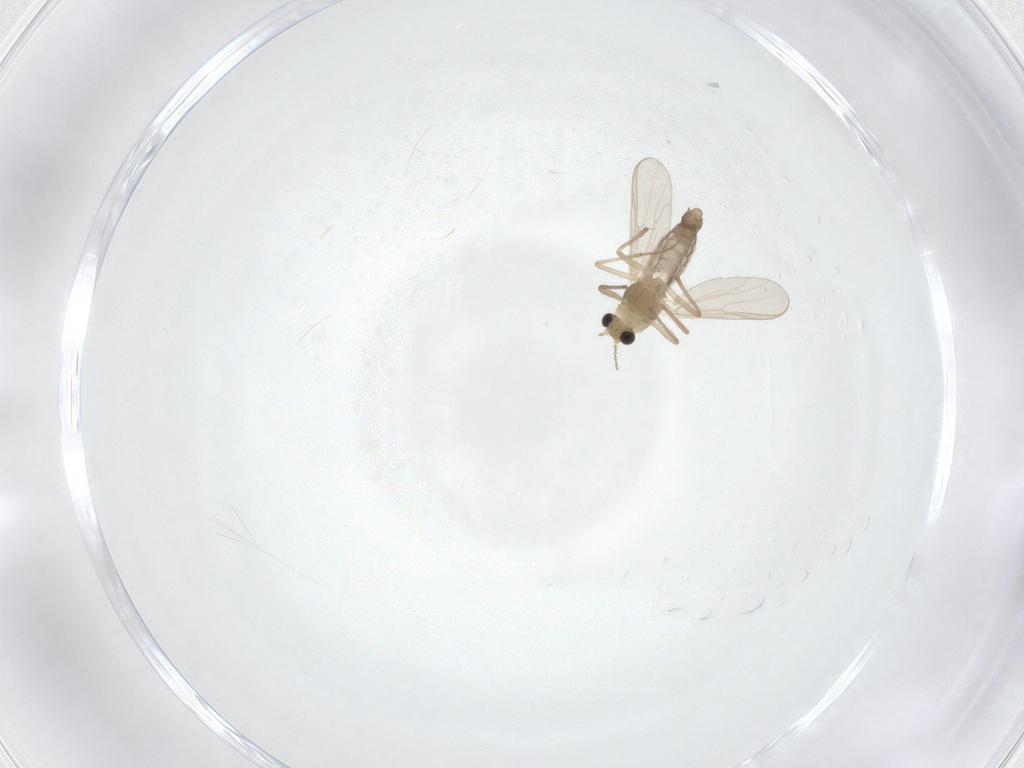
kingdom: Animalia
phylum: Arthropoda
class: Insecta
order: Diptera
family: Chironomidae
